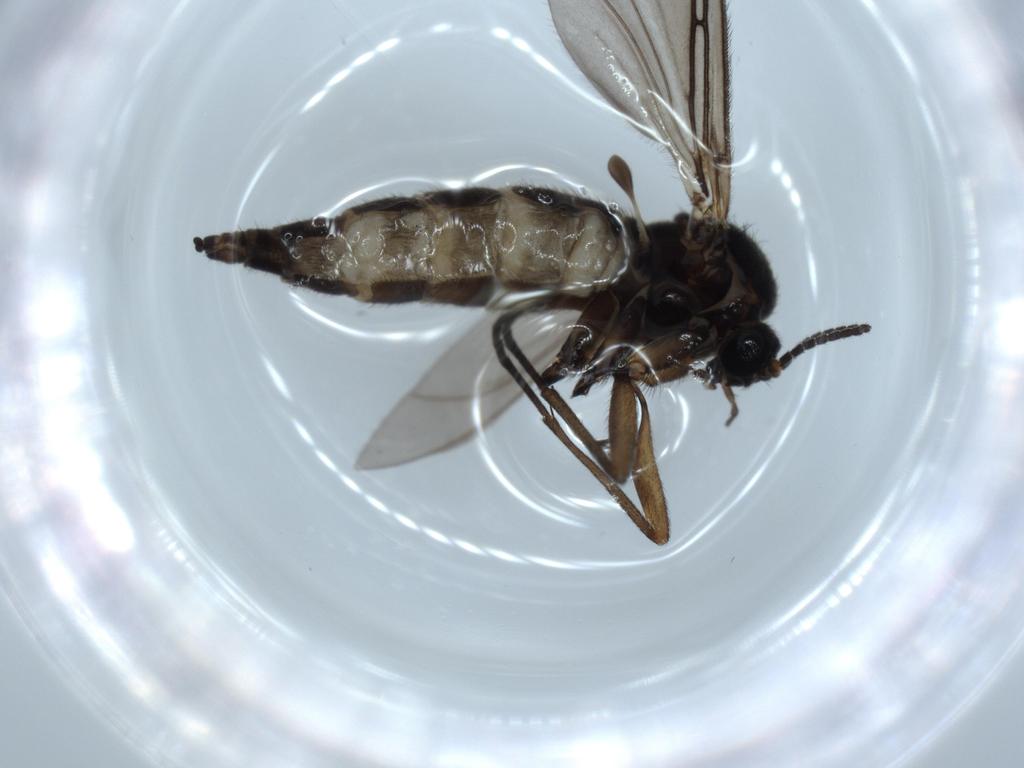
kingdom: Animalia
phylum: Arthropoda
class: Insecta
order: Diptera
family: Sciaridae
